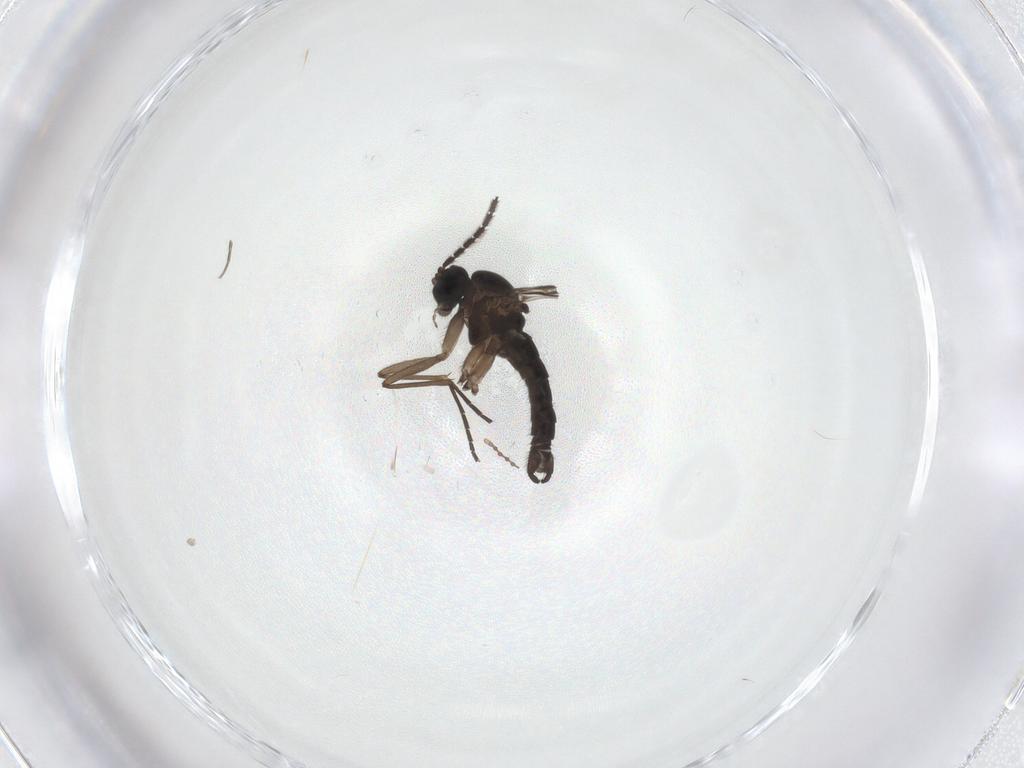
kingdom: Animalia
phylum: Arthropoda
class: Insecta
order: Diptera
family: Sciaridae
